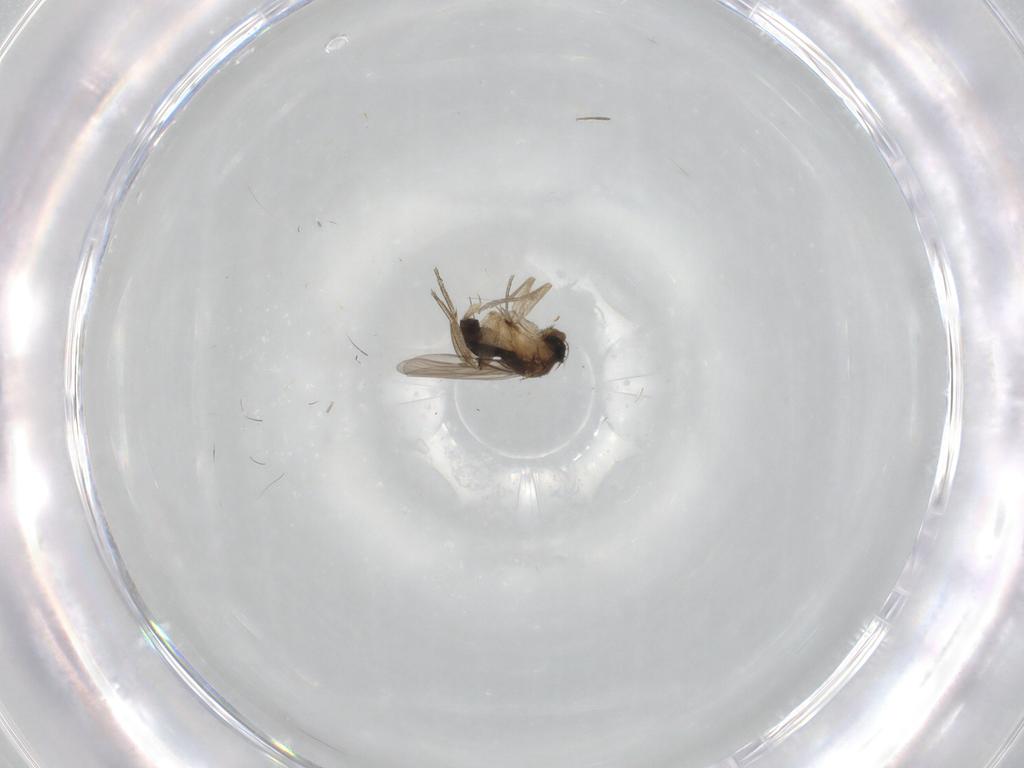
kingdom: Animalia
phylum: Arthropoda
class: Insecta
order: Diptera
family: Phoridae
